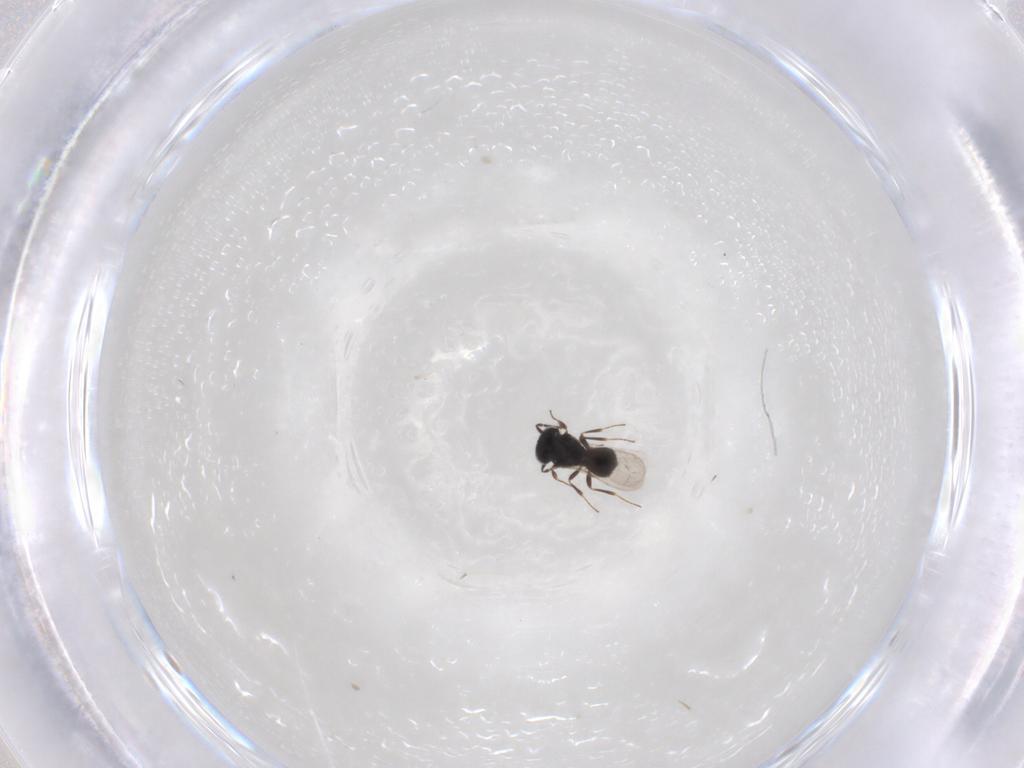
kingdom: Animalia
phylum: Arthropoda
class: Insecta
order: Hymenoptera
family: Scelionidae
